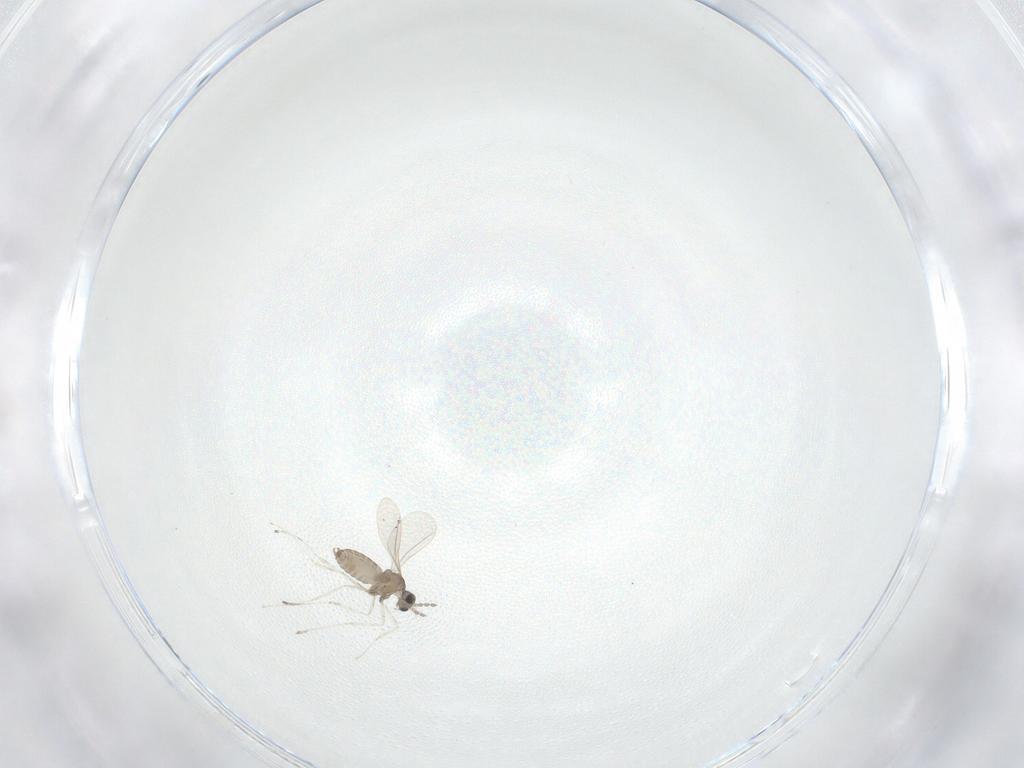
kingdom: Animalia
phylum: Arthropoda
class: Insecta
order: Diptera
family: Cecidomyiidae
